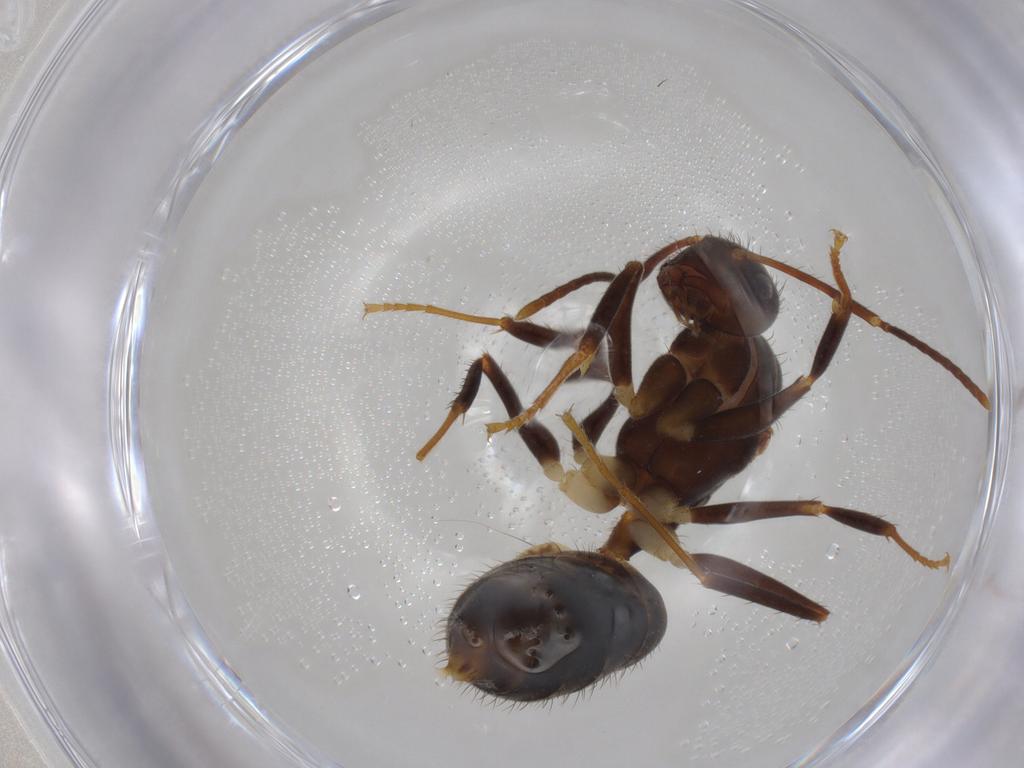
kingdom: Animalia
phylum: Arthropoda
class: Insecta
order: Hymenoptera
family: Formicidae
